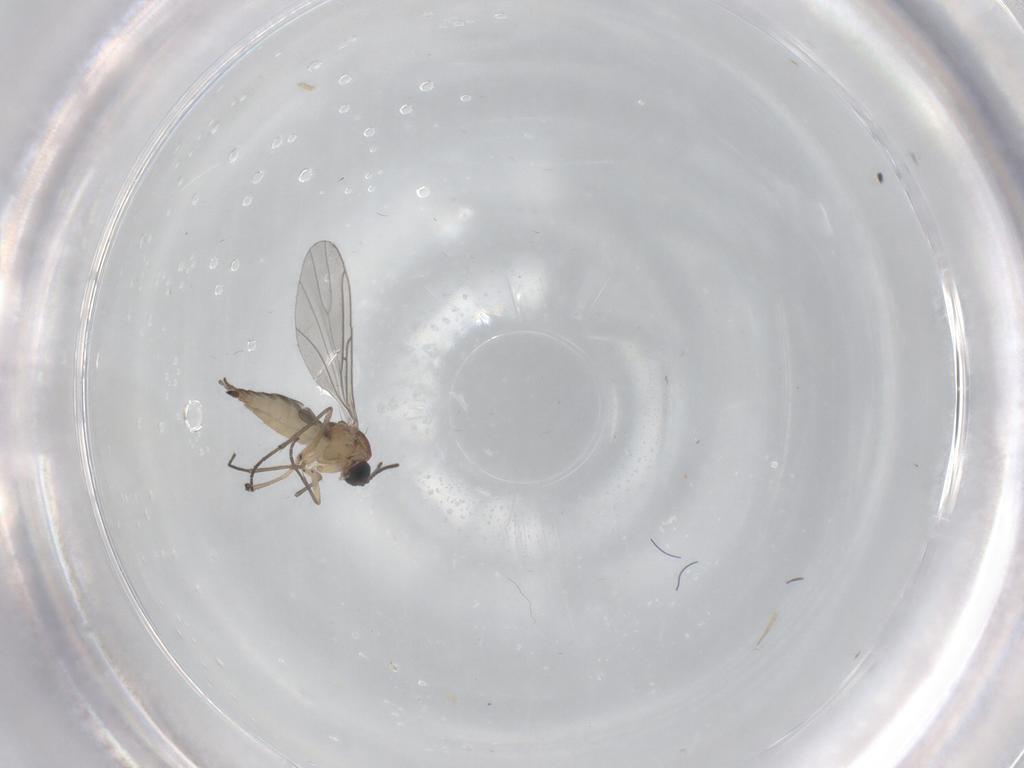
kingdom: Animalia
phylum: Arthropoda
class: Insecta
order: Diptera
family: Sciaridae
